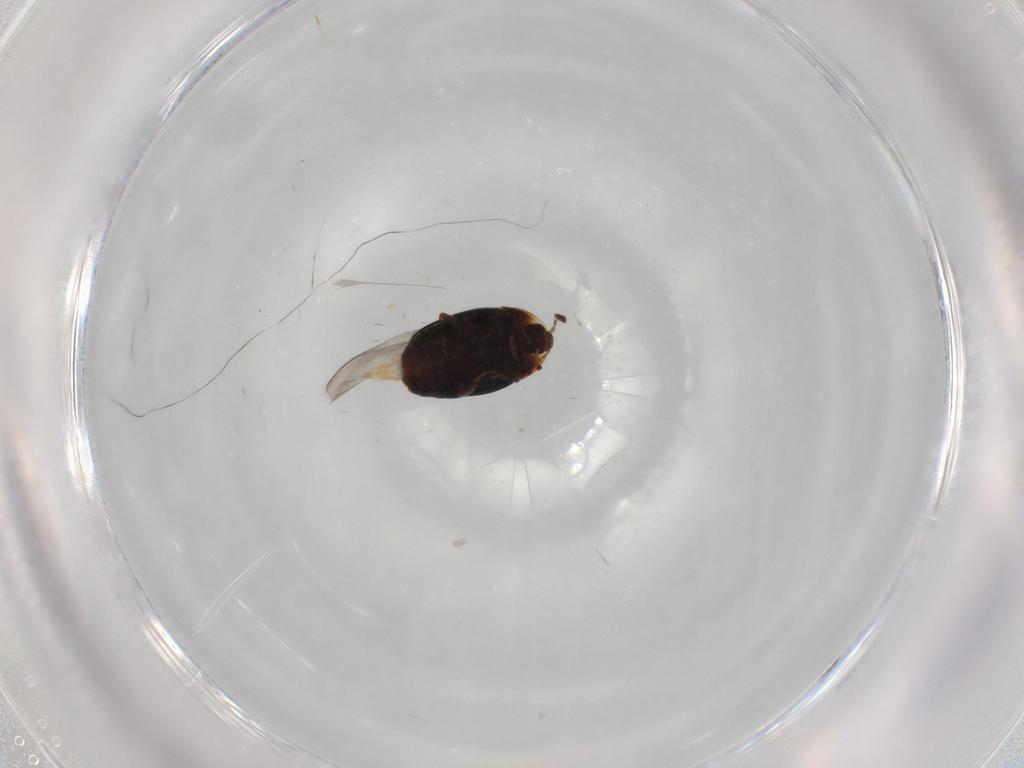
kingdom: Animalia
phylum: Arthropoda
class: Insecta
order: Coleoptera
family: Corylophidae
